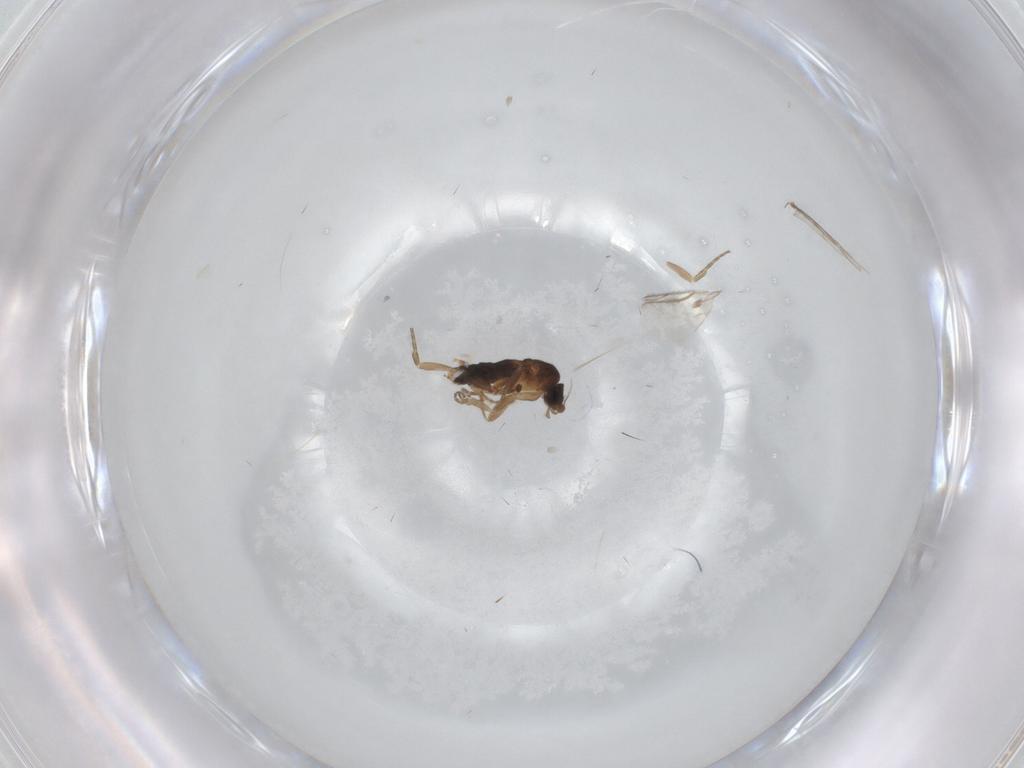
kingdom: Animalia
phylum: Arthropoda
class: Insecta
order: Diptera
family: Phoridae
